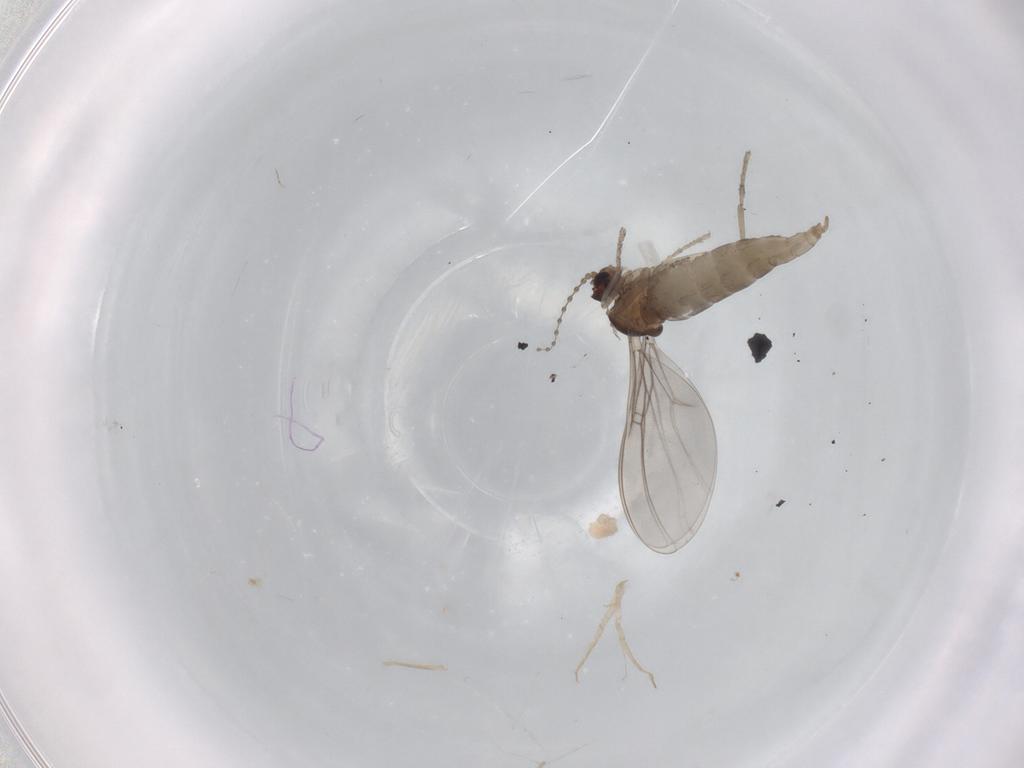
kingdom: Animalia
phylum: Arthropoda
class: Insecta
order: Diptera
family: Cecidomyiidae
